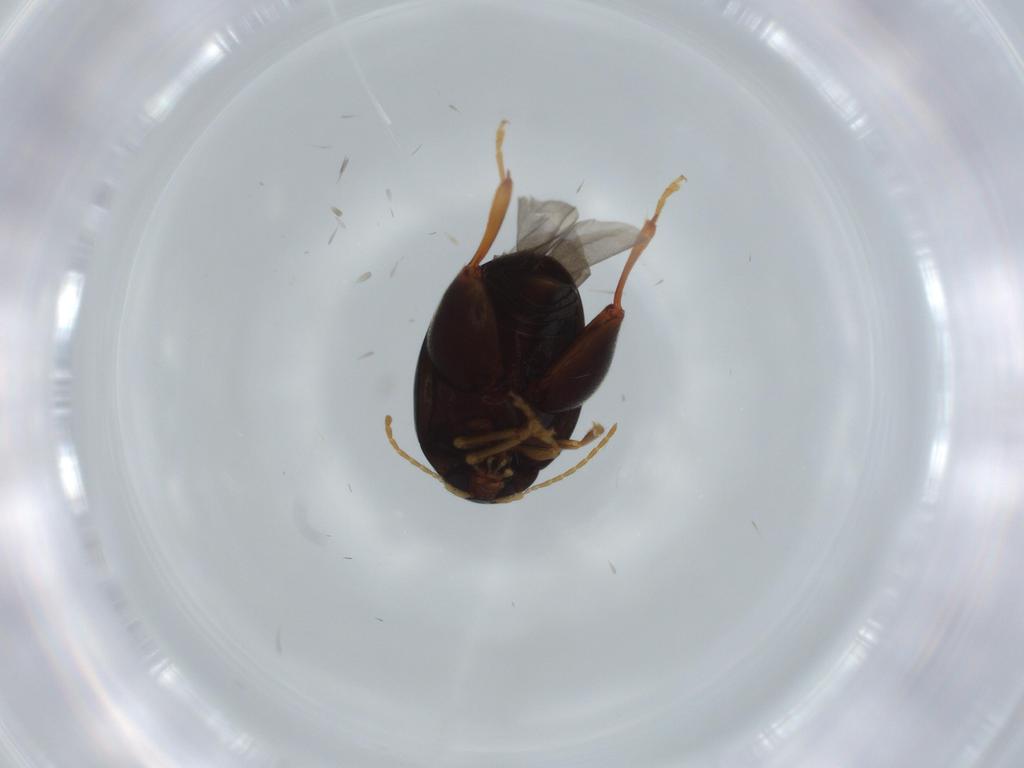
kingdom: Animalia
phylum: Arthropoda
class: Insecta
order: Coleoptera
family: Chrysomelidae
